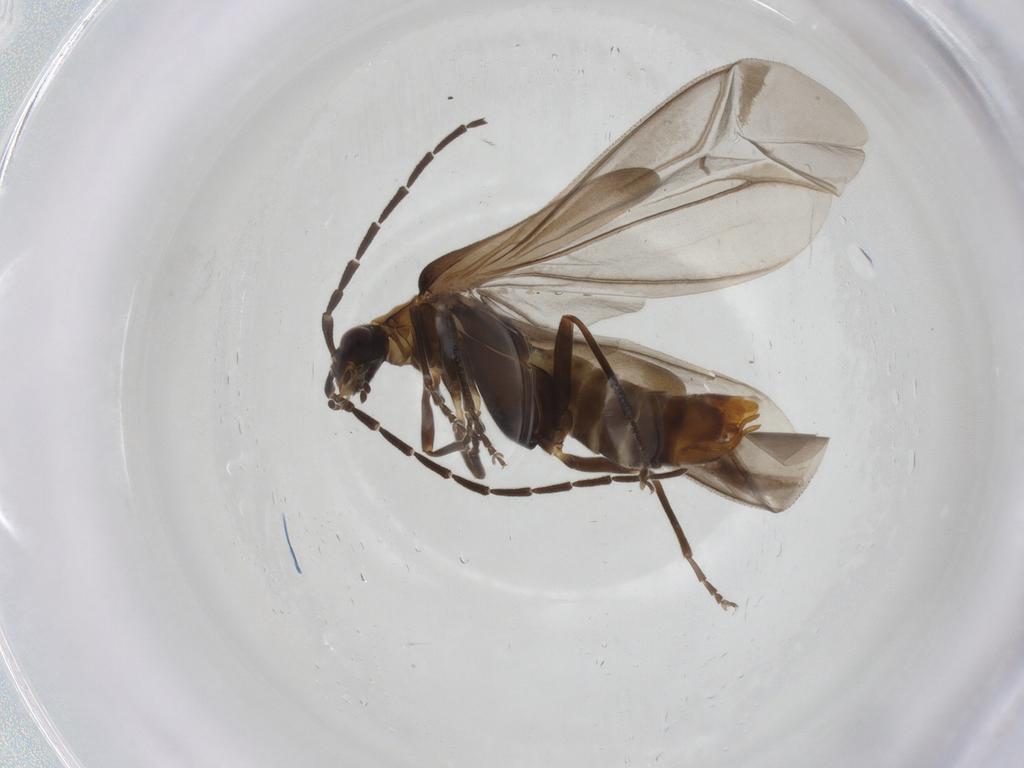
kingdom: Animalia
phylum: Arthropoda
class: Insecta
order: Coleoptera
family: Cantharidae
